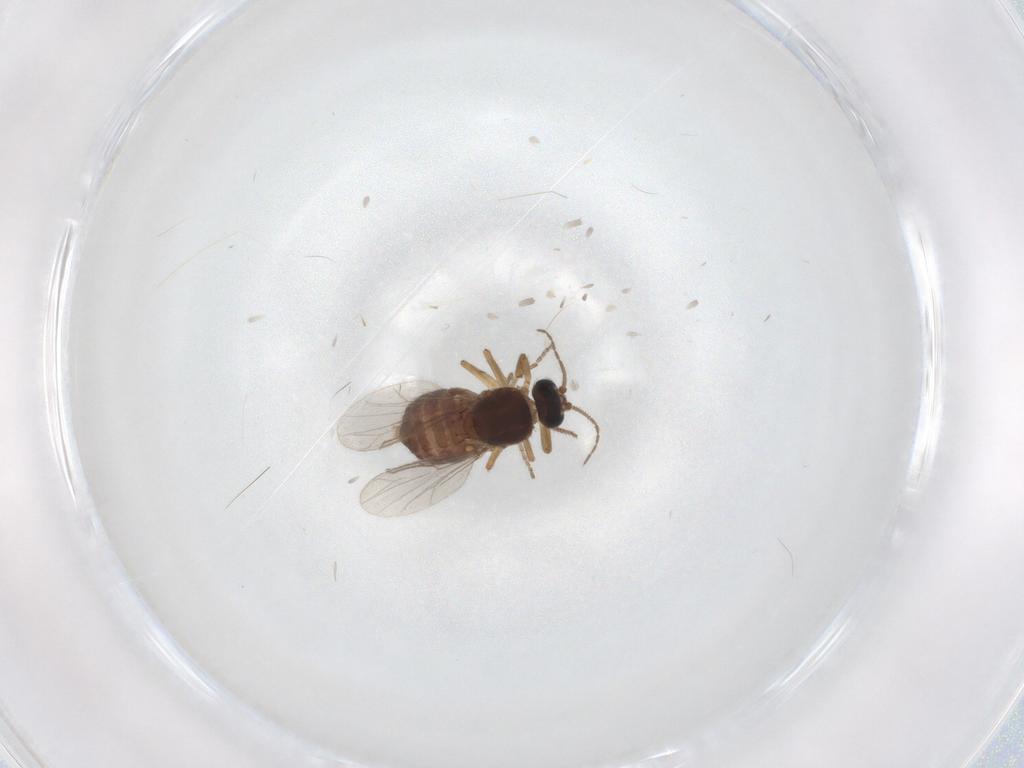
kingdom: Animalia
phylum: Arthropoda
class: Insecta
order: Diptera
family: Ceratopogonidae
